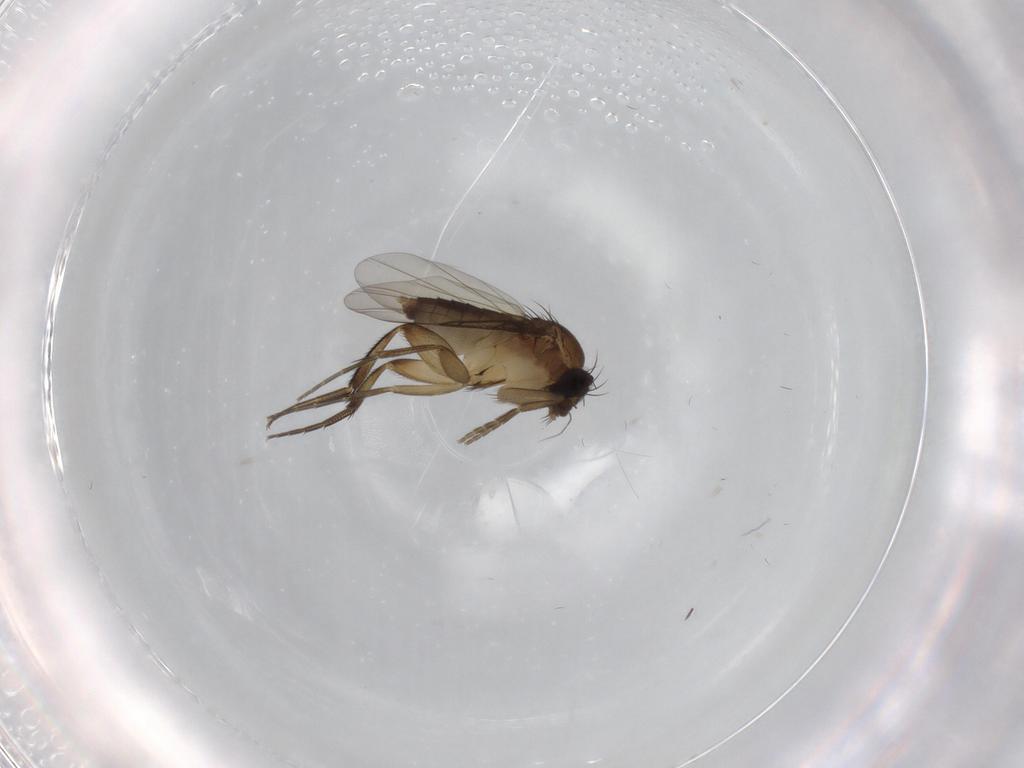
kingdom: Animalia
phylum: Arthropoda
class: Insecta
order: Diptera
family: Phoridae
